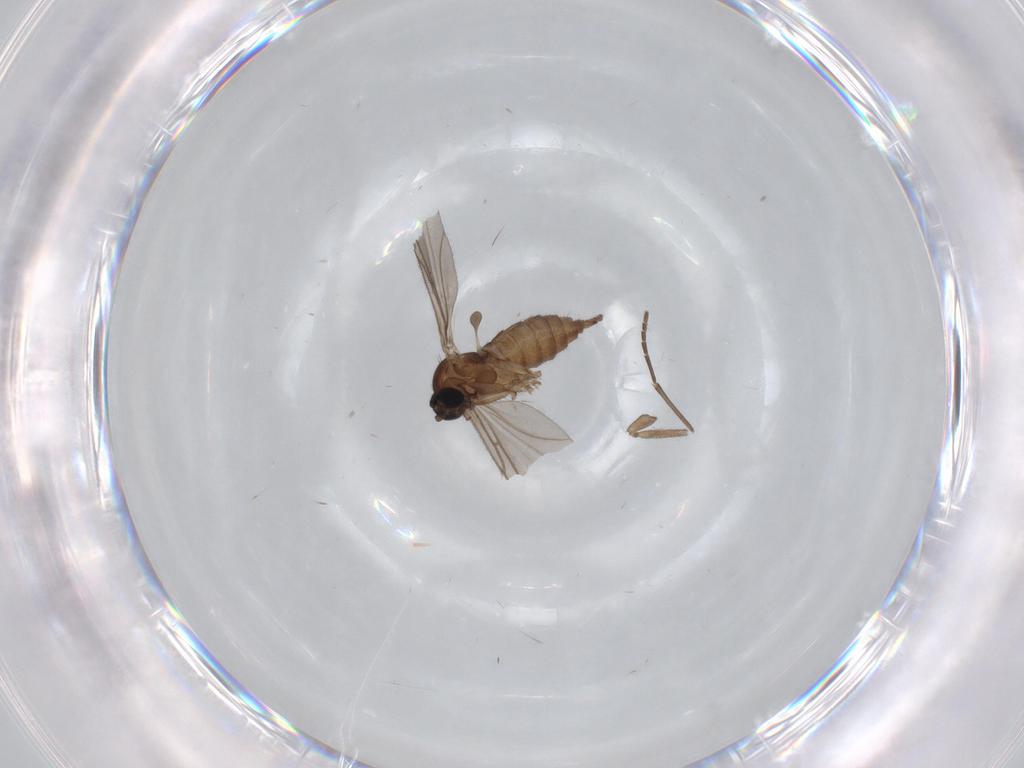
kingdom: Animalia
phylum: Arthropoda
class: Insecta
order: Diptera
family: Sciaridae
